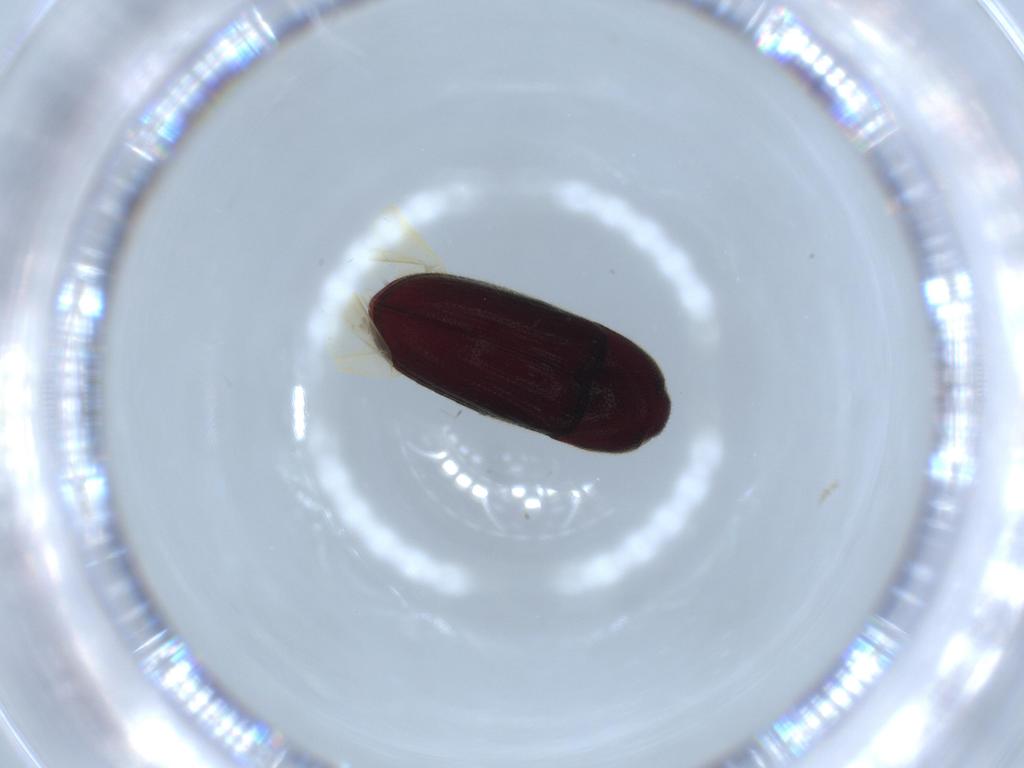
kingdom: Animalia
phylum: Arthropoda
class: Insecta
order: Coleoptera
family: Throscidae
